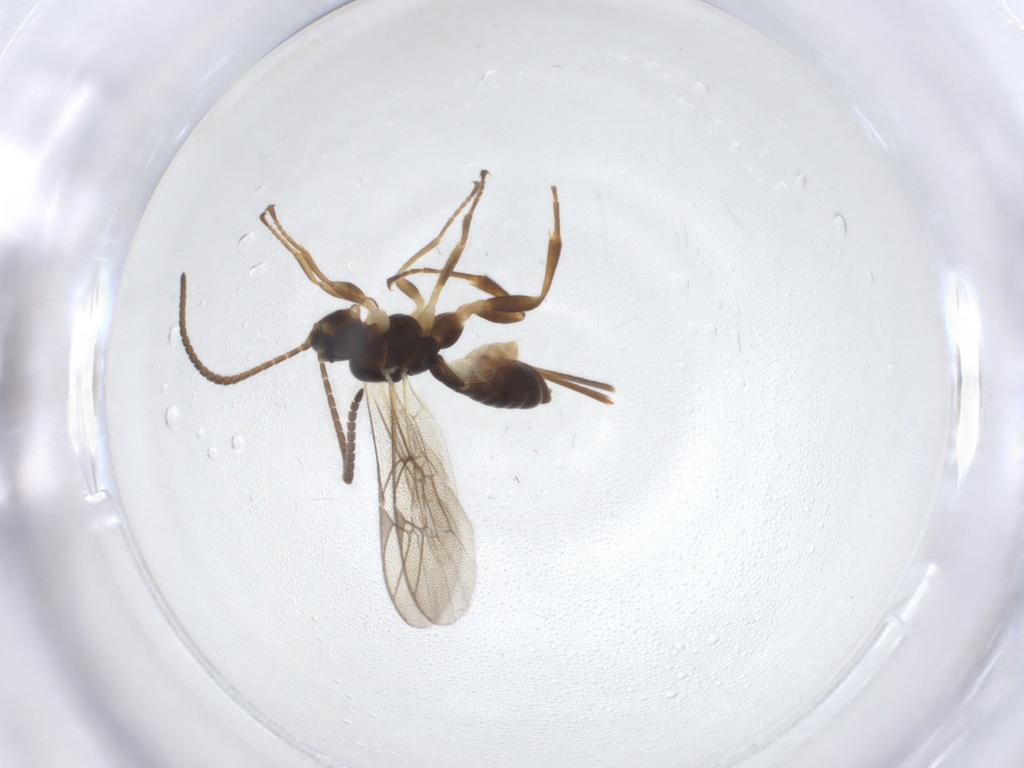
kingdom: Animalia
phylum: Arthropoda
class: Insecta
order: Hymenoptera
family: Ichneumonidae
